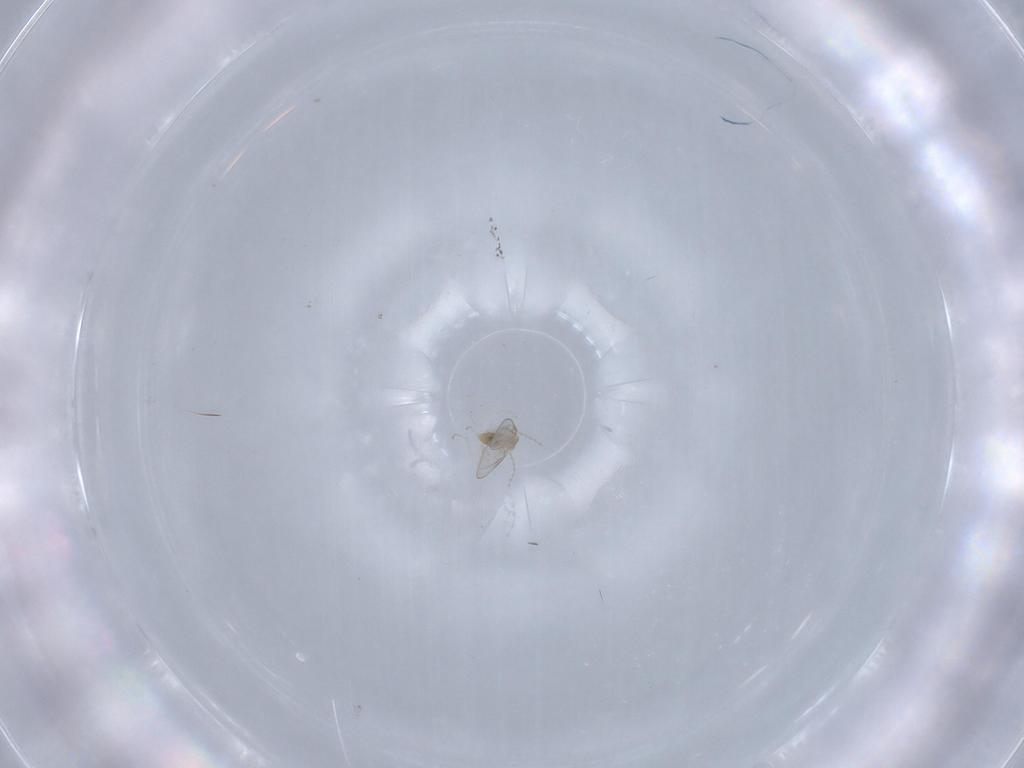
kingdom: Animalia
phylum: Arthropoda
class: Insecta
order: Diptera
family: Cecidomyiidae
